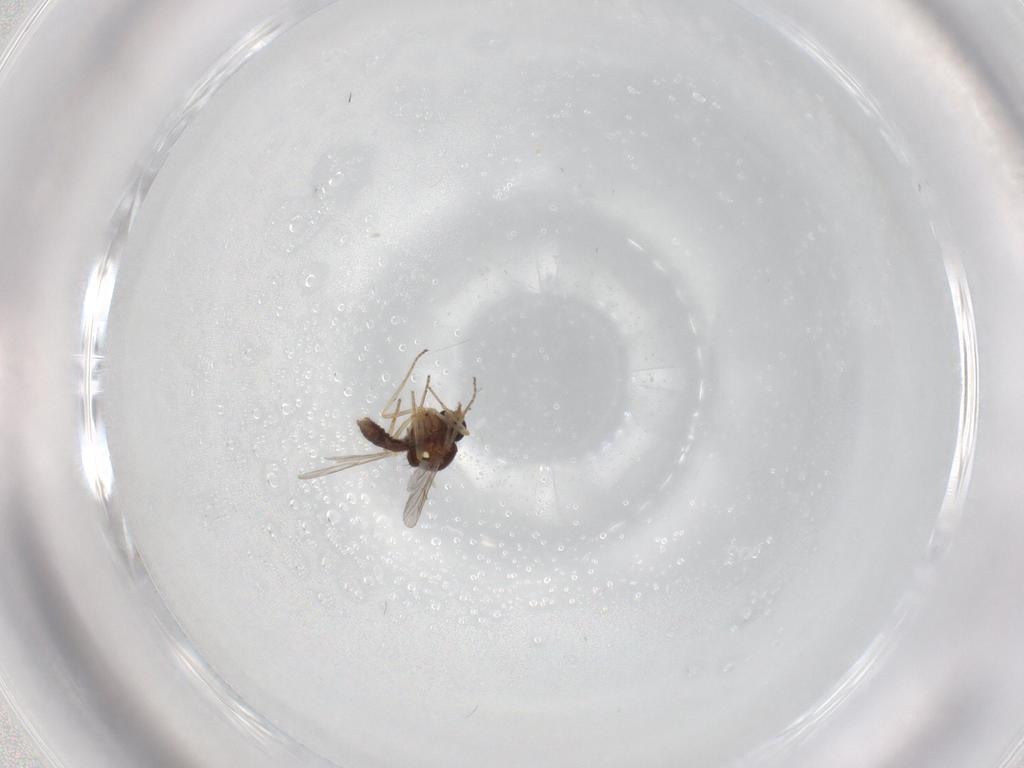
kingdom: Animalia
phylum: Arthropoda
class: Insecta
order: Diptera
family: Ceratopogonidae
